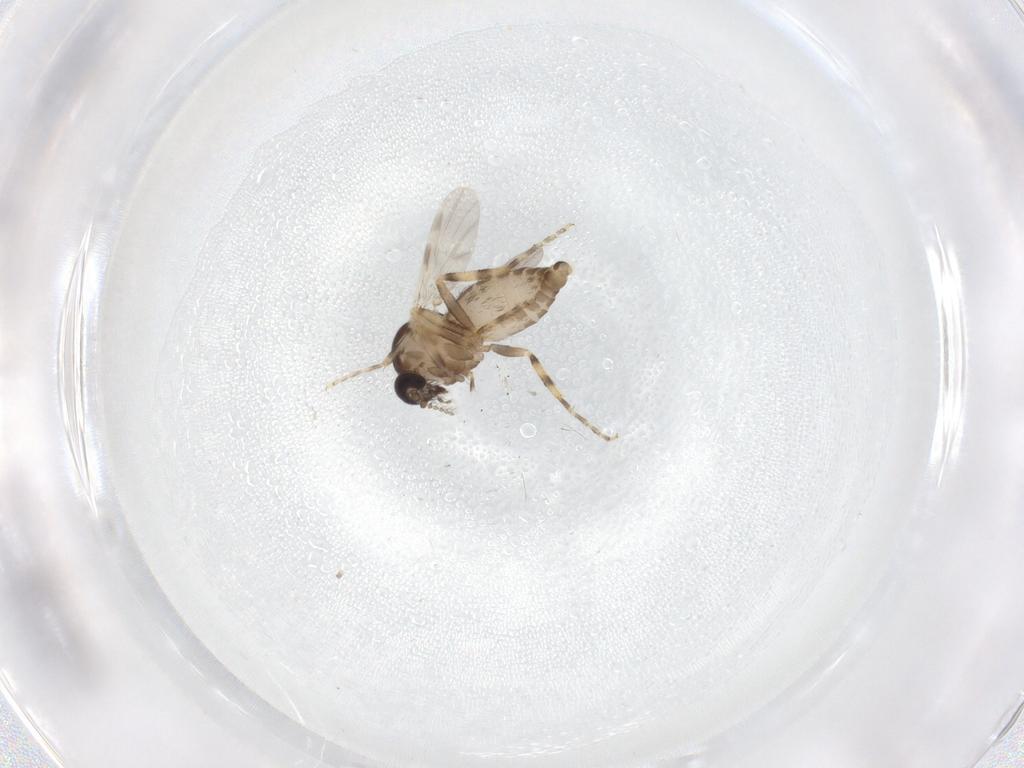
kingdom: Animalia
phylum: Arthropoda
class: Insecta
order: Diptera
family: Ceratopogonidae
